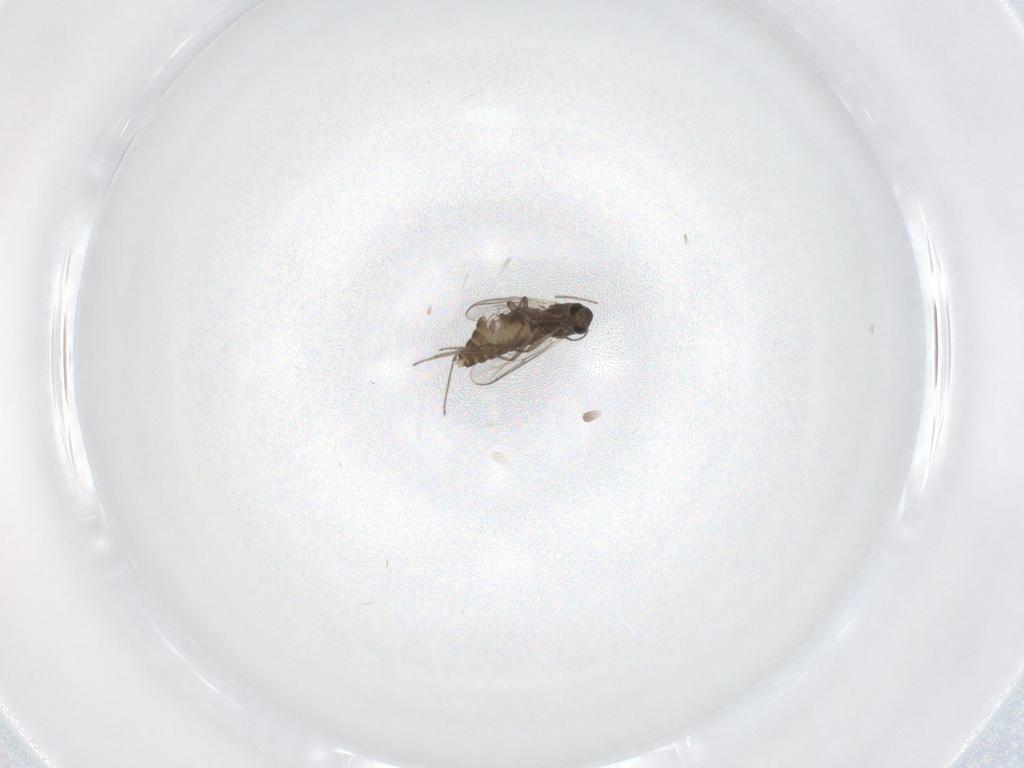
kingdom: Animalia
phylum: Arthropoda
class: Insecta
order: Diptera
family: Chironomidae
